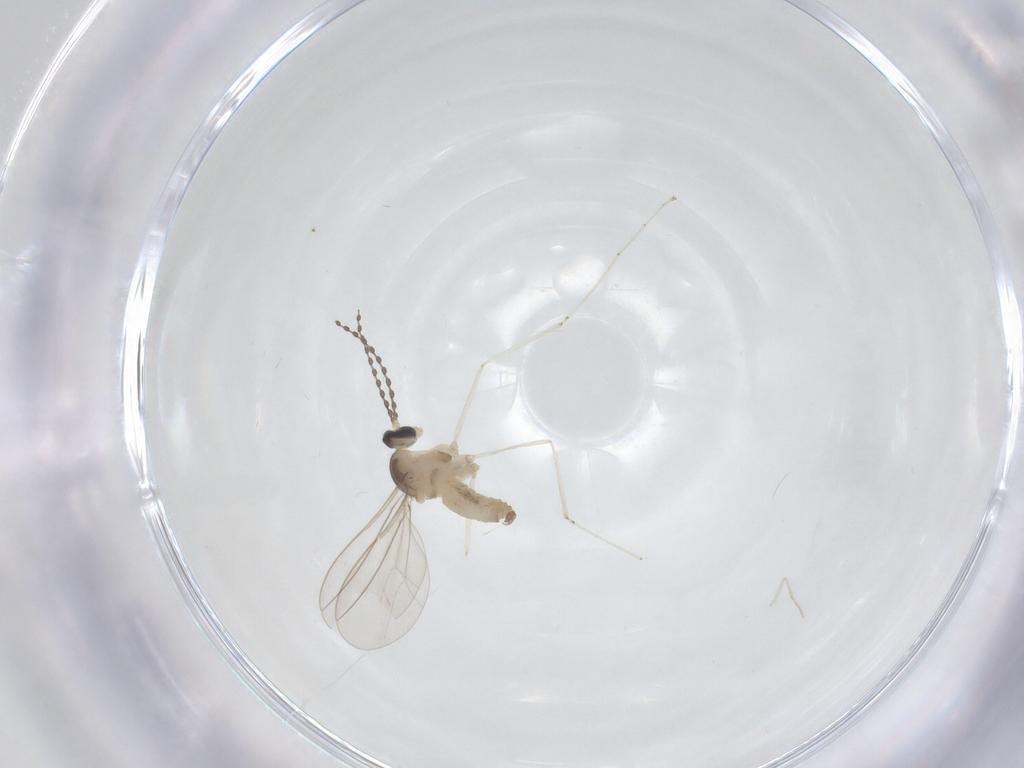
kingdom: Animalia
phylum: Arthropoda
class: Insecta
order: Diptera
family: Cecidomyiidae
